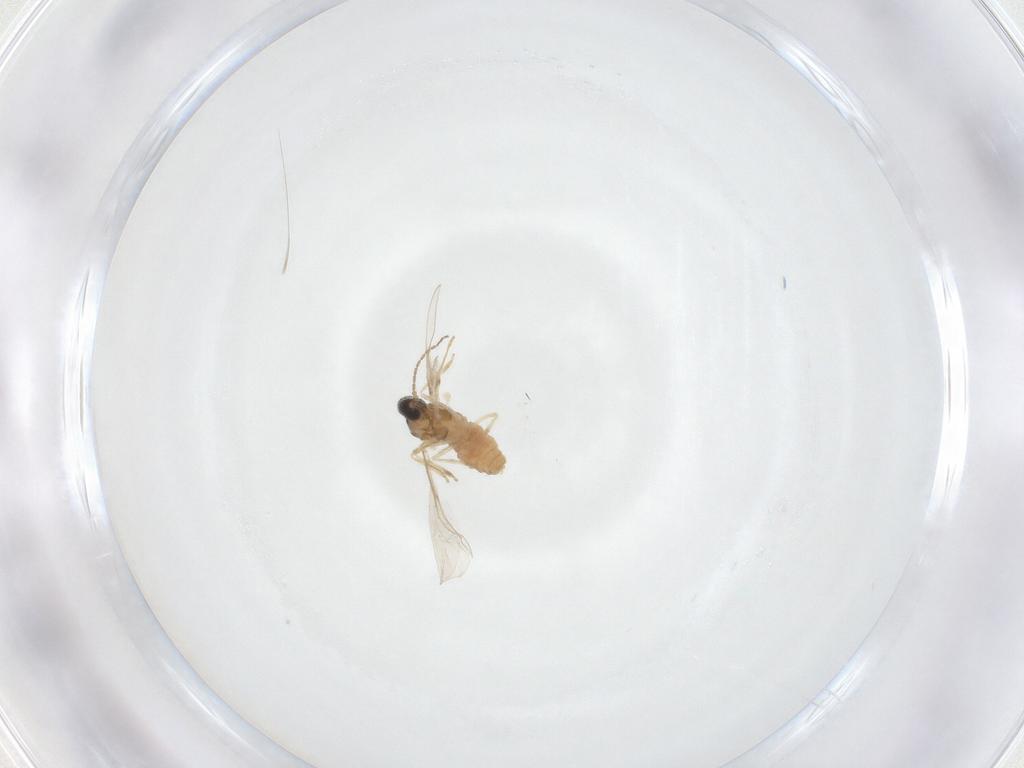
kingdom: Animalia
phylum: Arthropoda
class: Insecta
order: Diptera
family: Cecidomyiidae
